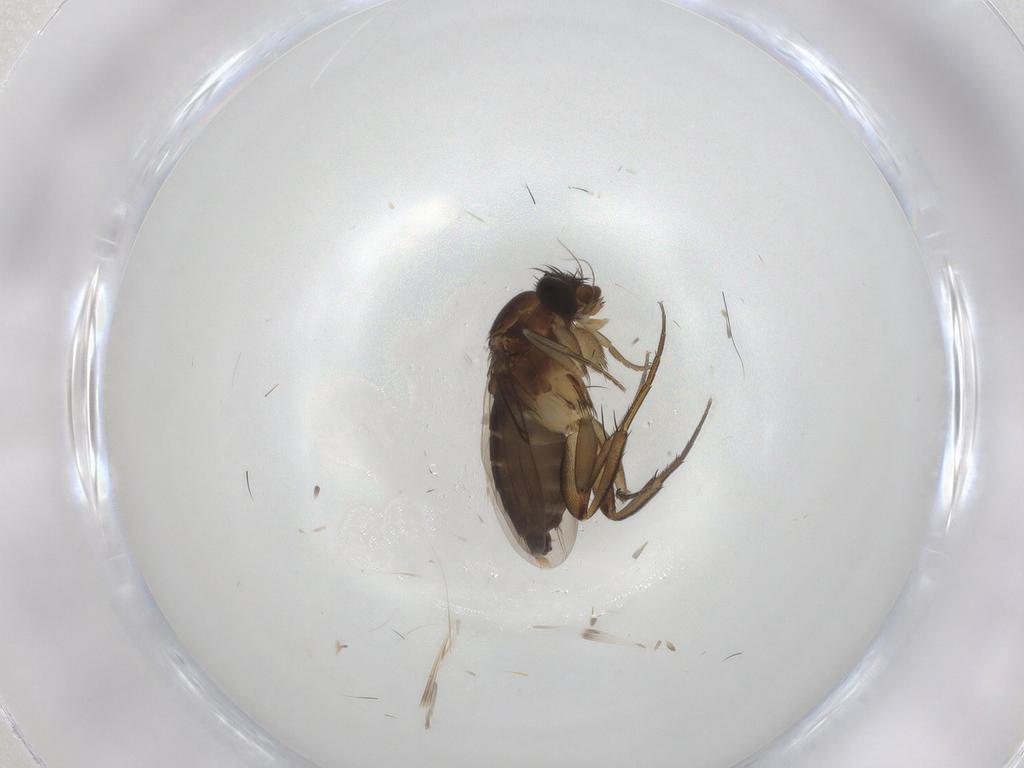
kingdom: Animalia
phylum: Arthropoda
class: Insecta
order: Diptera
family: Phoridae
